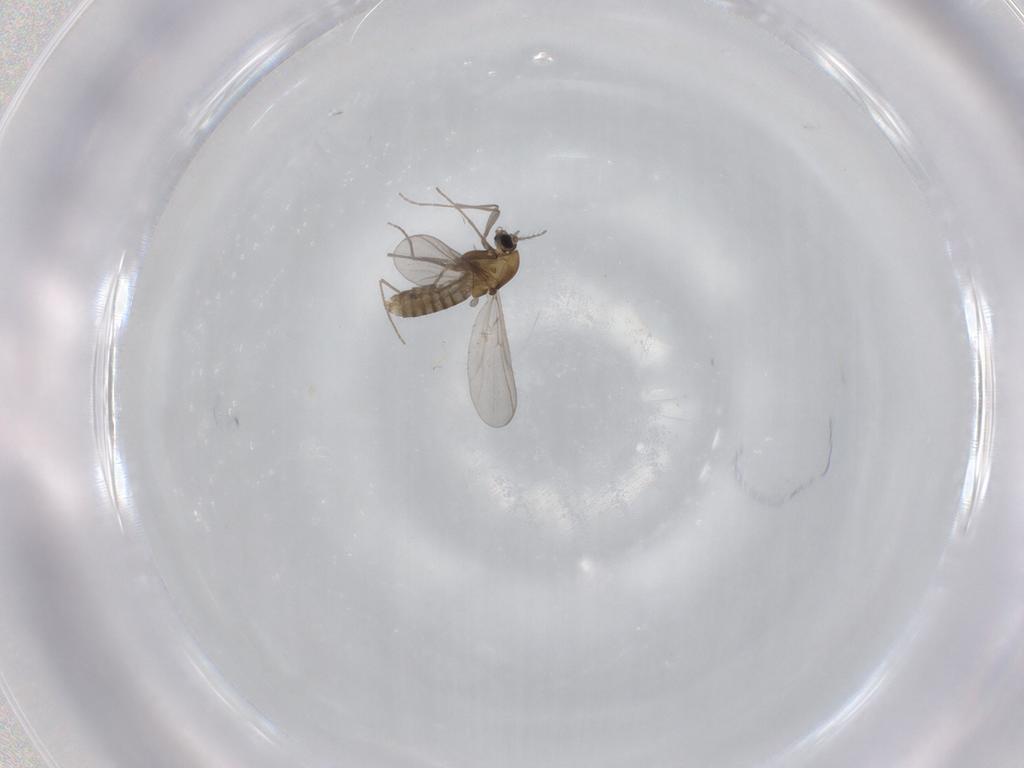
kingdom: Animalia
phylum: Arthropoda
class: Insecta
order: Diptera
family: Chironomidae
